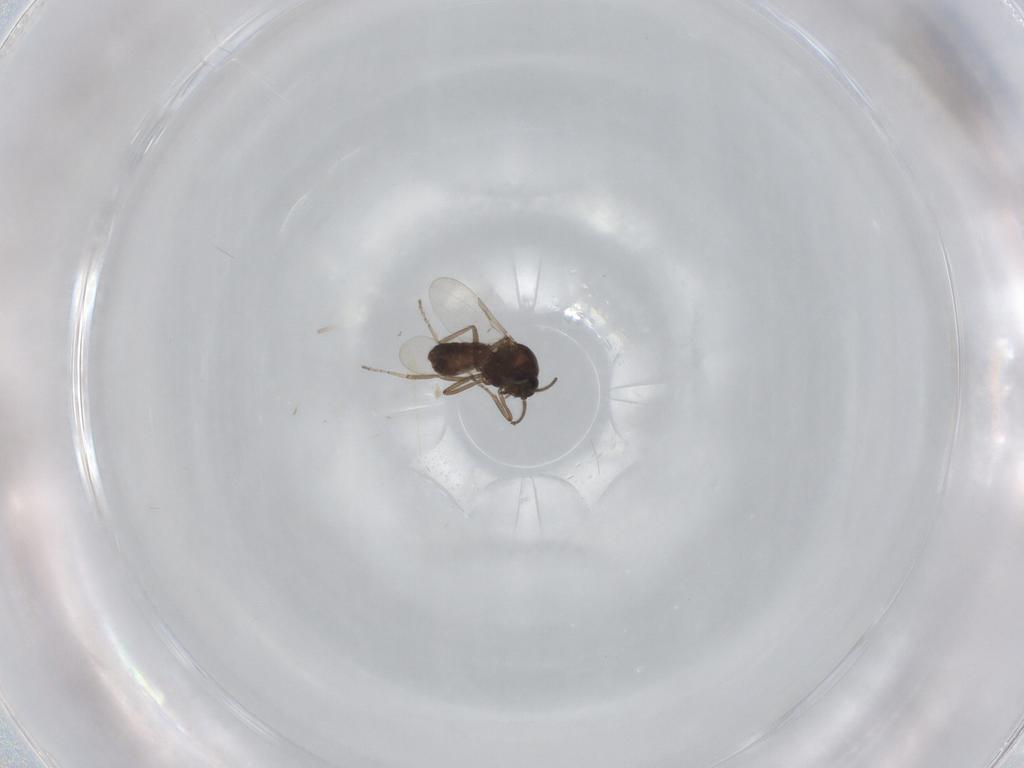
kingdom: Animalia
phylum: Arthropoda
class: Insecta
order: Diptera
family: Ceratopogonidae
